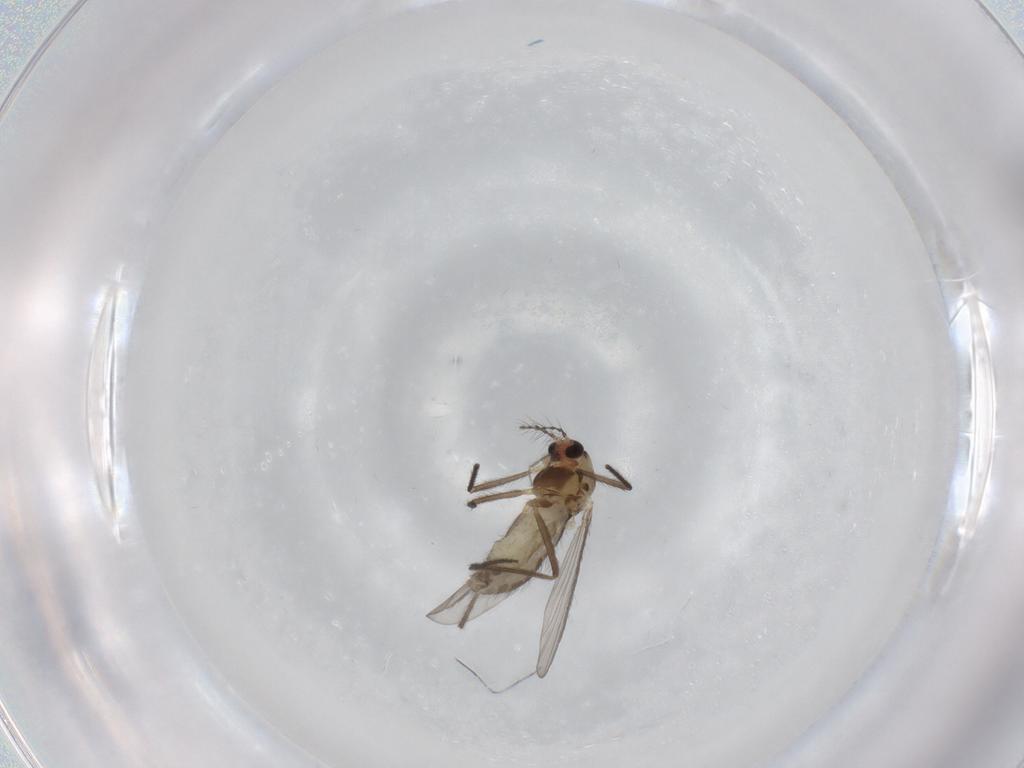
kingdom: Animalia
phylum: Arthropoda
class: Insecta
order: Diptera
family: Chironomidae
